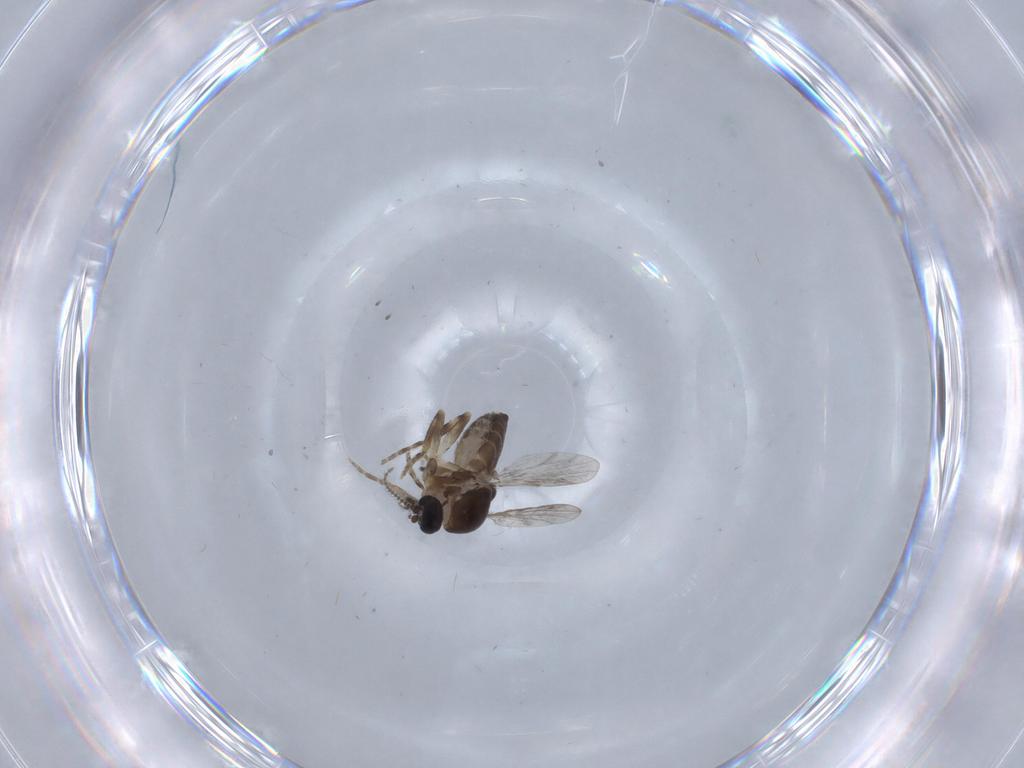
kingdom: Animalia
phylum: Arthropoda
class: Insecta
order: Diptera
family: Ceratopogonidae
